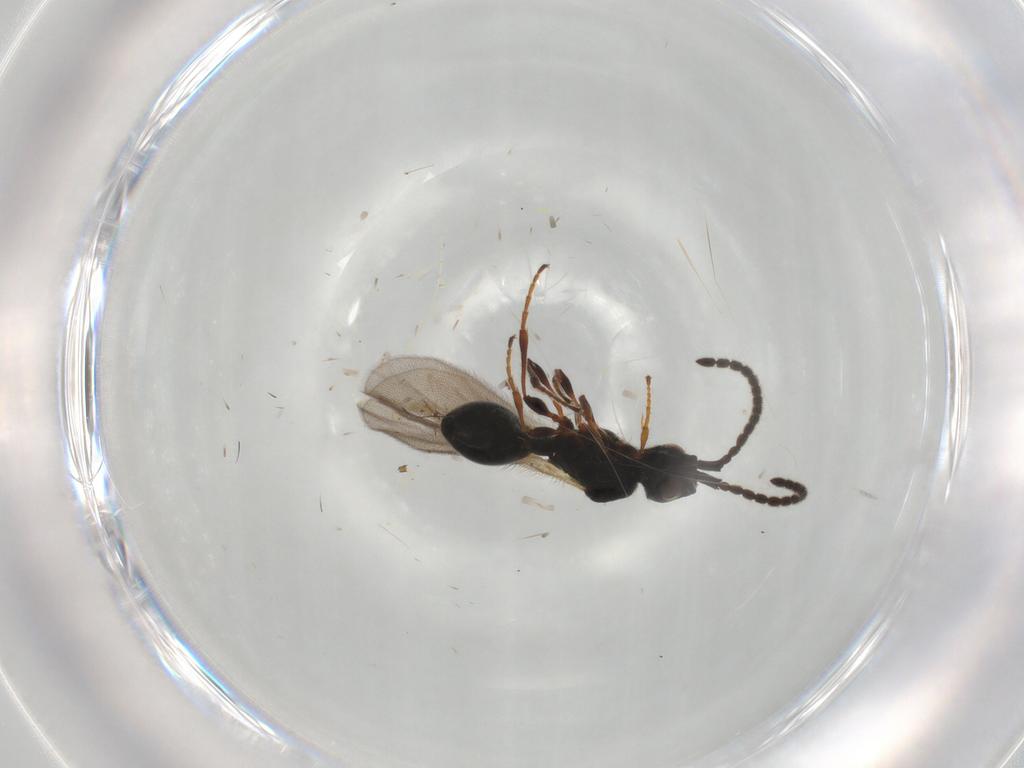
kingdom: Animalia
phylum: Arthropoda
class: Insecta
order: Hymenoptera
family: Diapriidae
